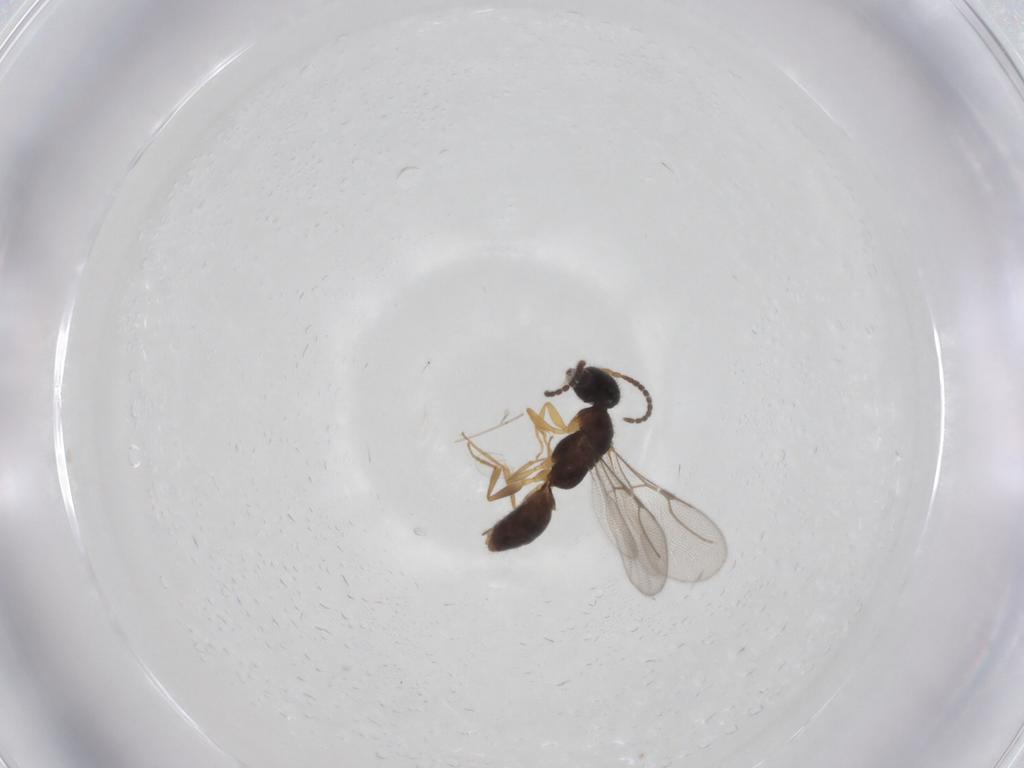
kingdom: Animalia
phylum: Arthropoda
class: Insecta
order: Hymenoptera
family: Bethylidae
